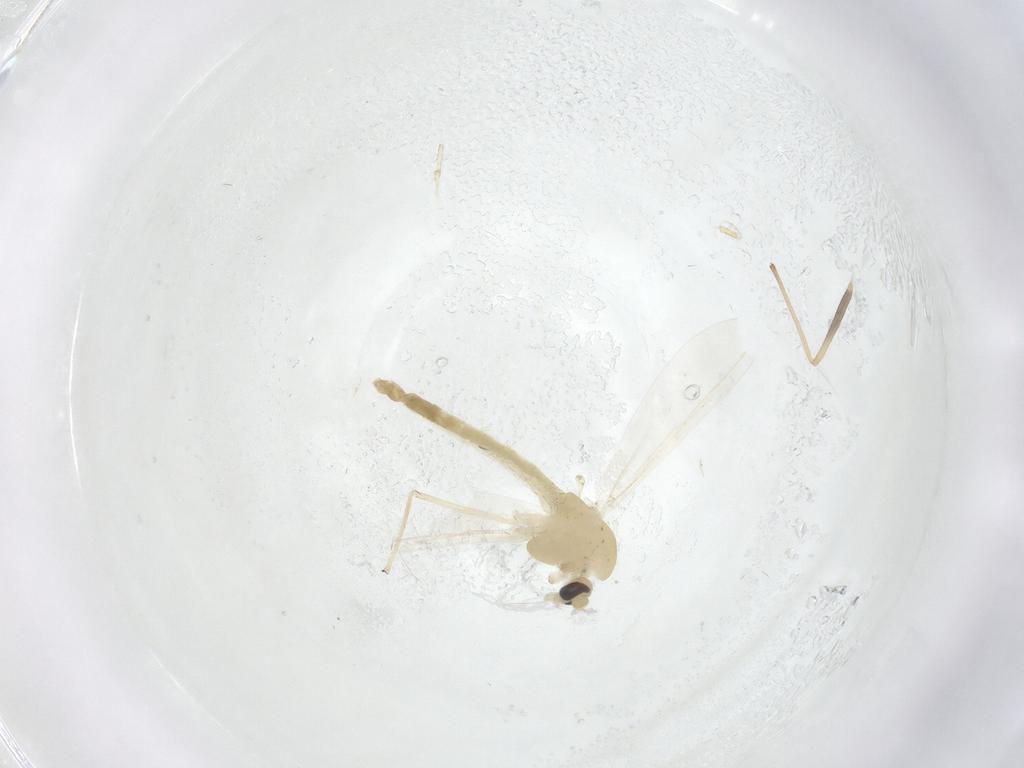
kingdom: Animalia
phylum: Arthropoda
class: Insecta
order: Diptera
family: Chironomidae
